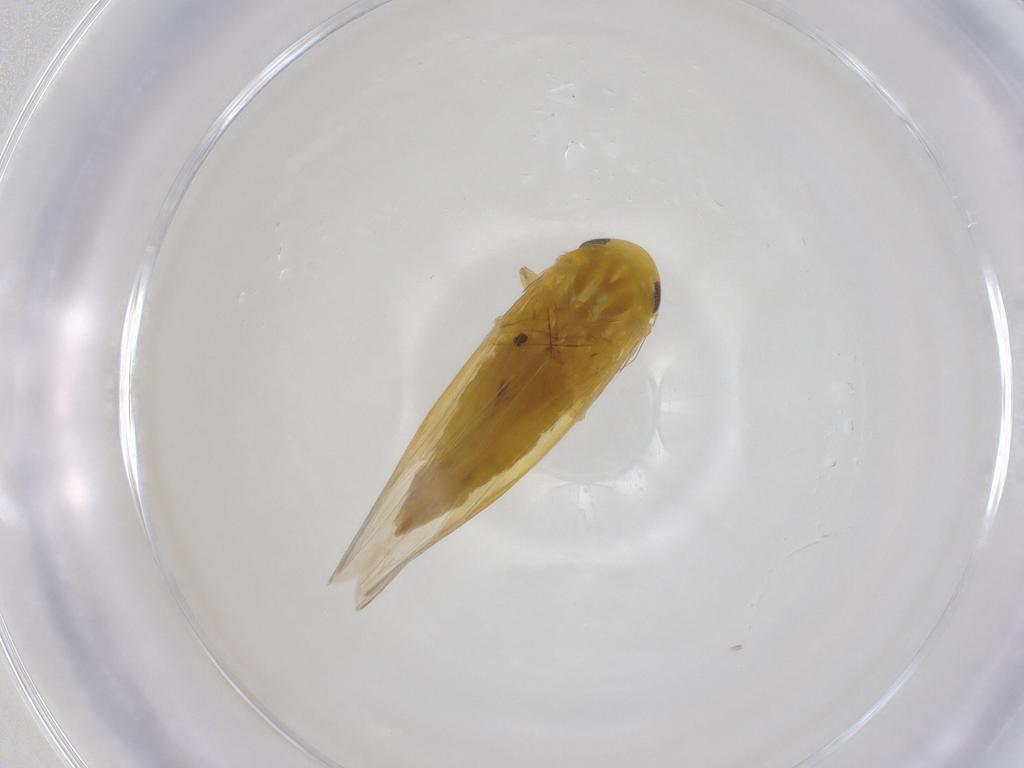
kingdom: Animalia
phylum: Arthropoda
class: Insecta
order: Hemiptera
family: Cicadellidae
